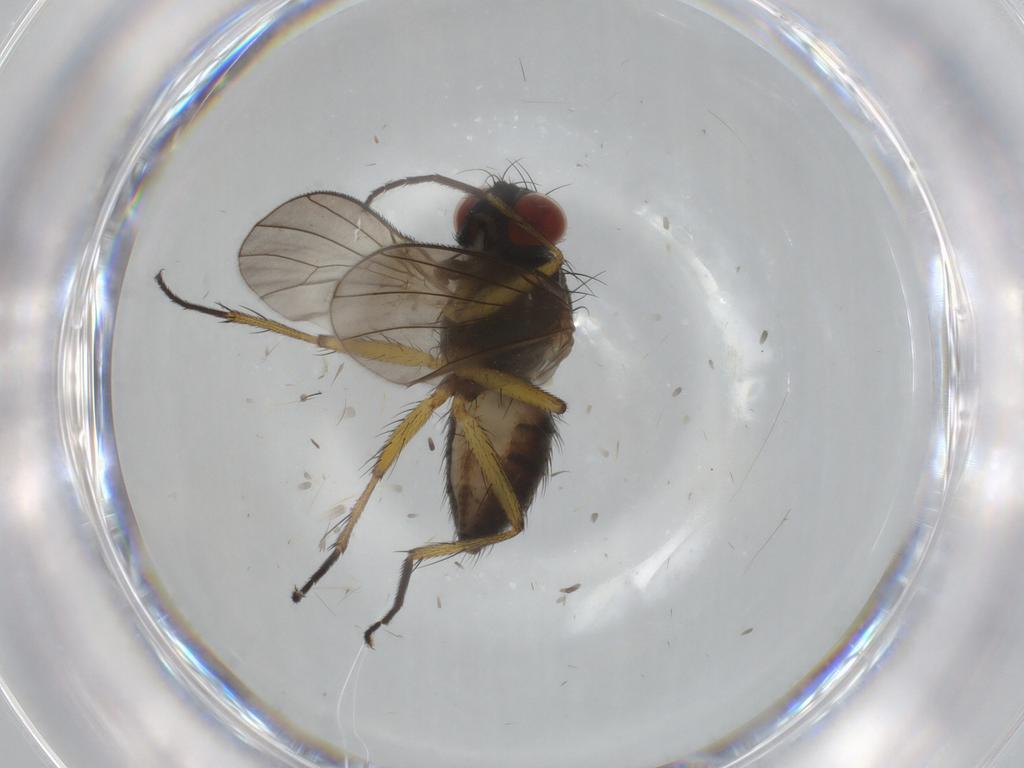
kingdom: Animalia
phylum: Arthropoda
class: Insecta
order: Diptera
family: Muscidae
